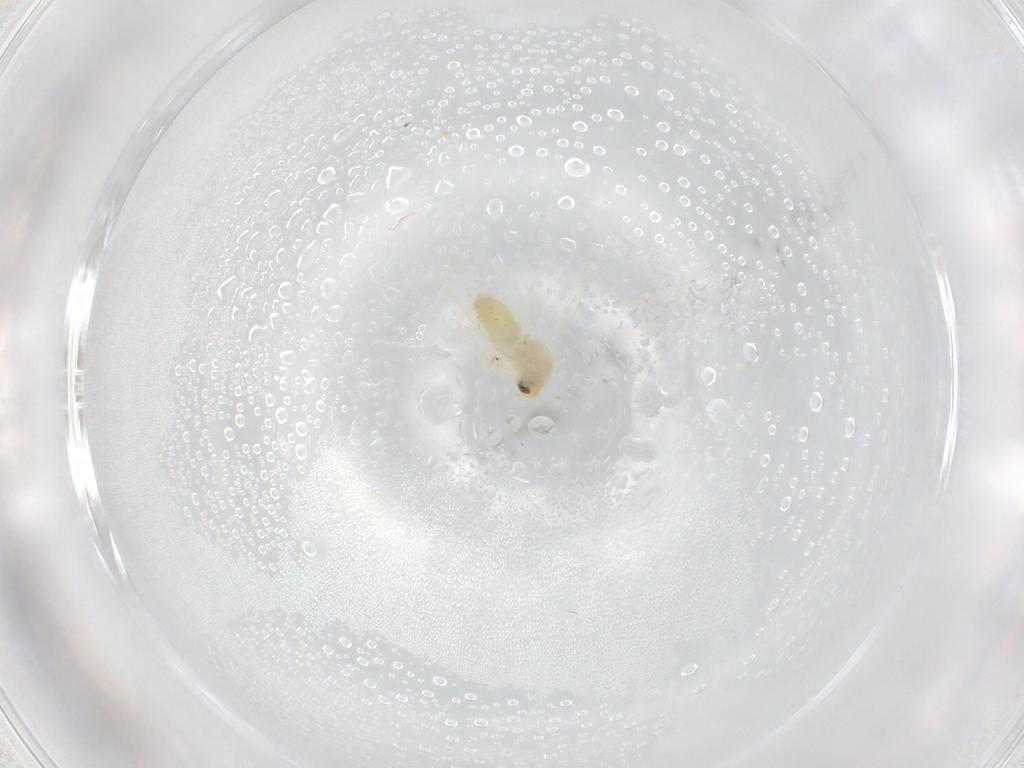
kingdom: Animalia
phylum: Arthropoda
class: Insecta
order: Hemiptera
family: Aleyrodidae
